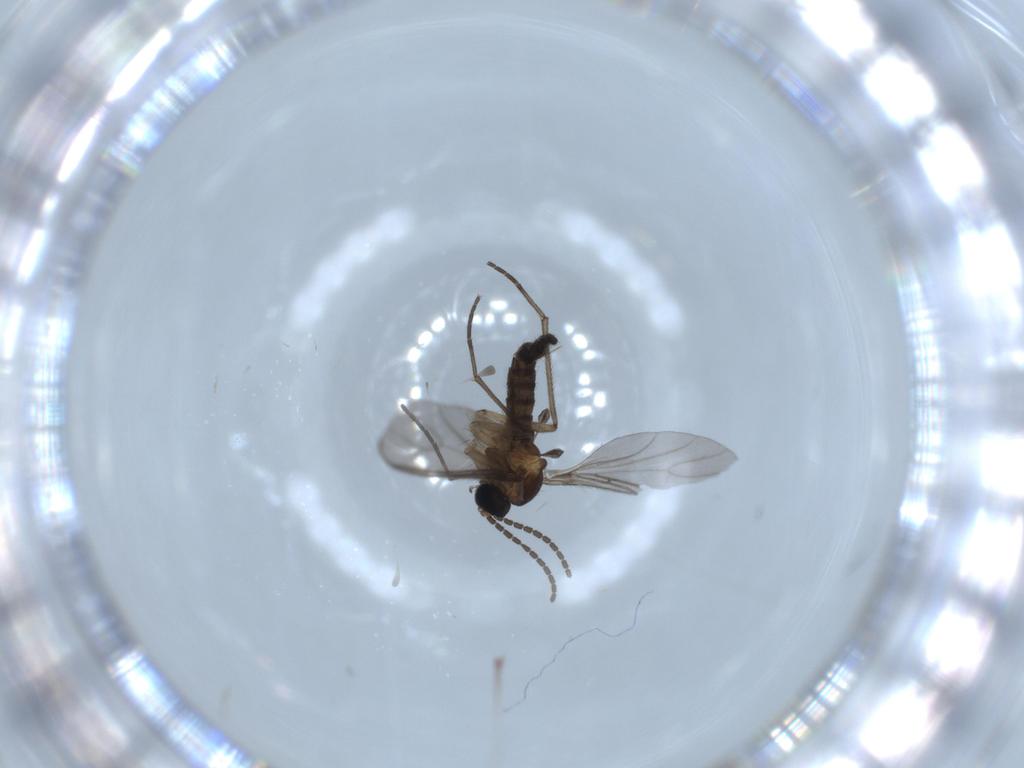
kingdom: Animalia
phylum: Arthropoda
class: Insecta
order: Diptera
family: Sciaridae
